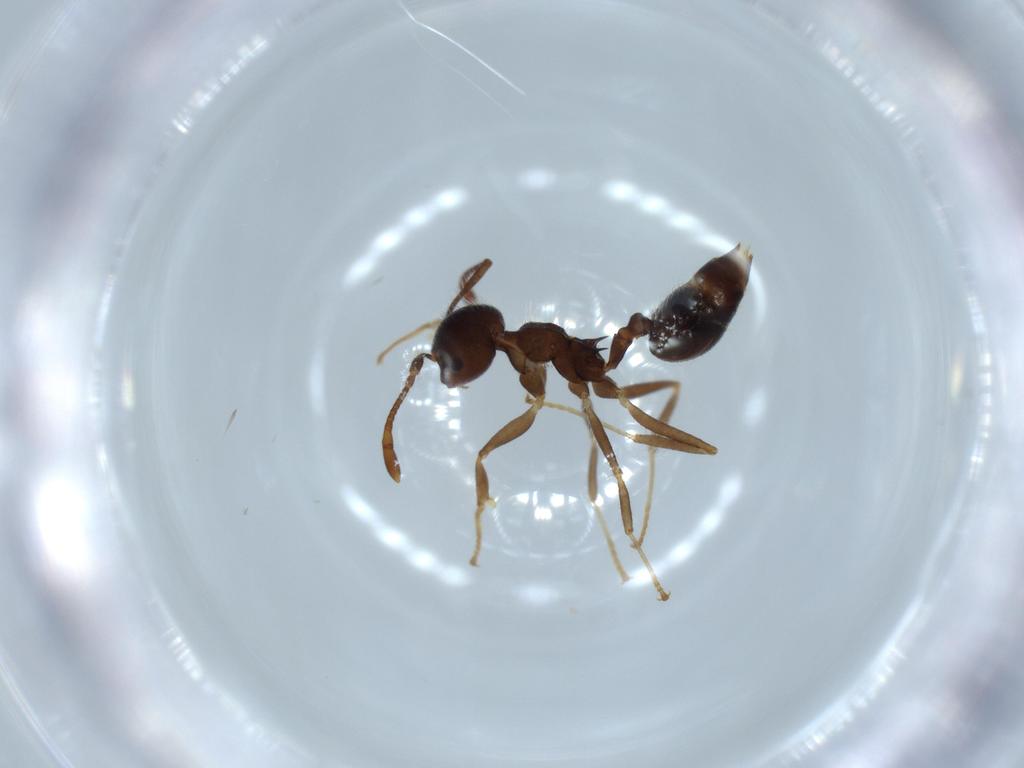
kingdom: Animalia
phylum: Arthropoda
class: Insecta
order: Hymenoptera
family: Formicidae
